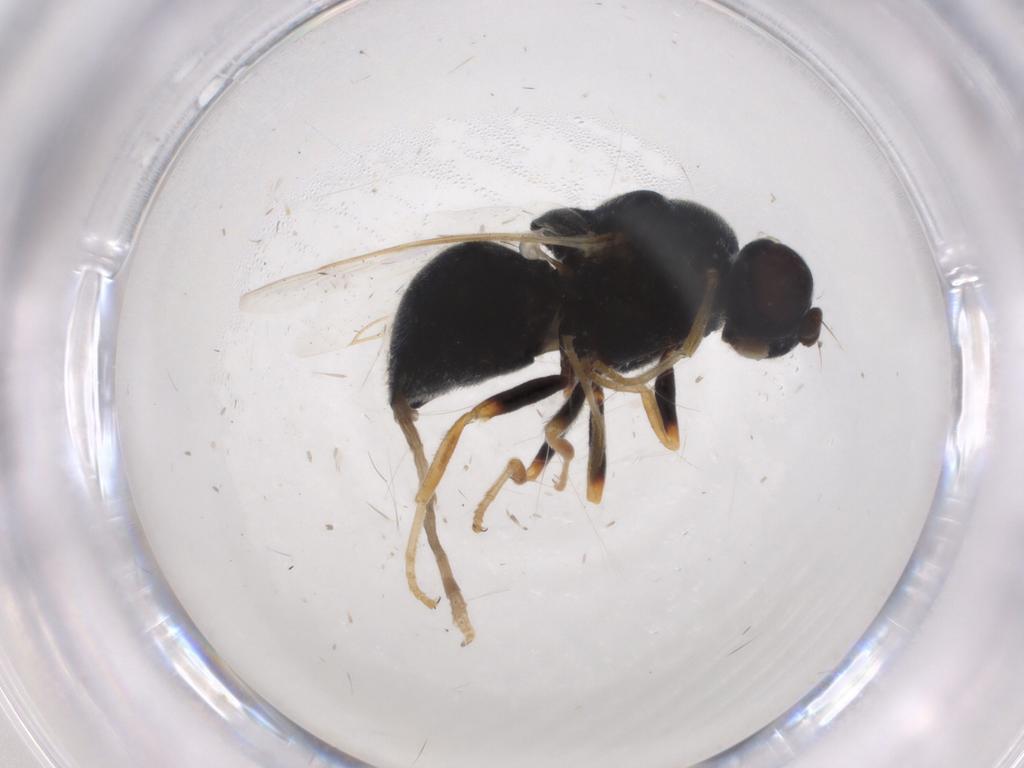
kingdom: Animalia
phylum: Arthropoda
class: Insecta
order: Diptera
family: Stratiomyidae
